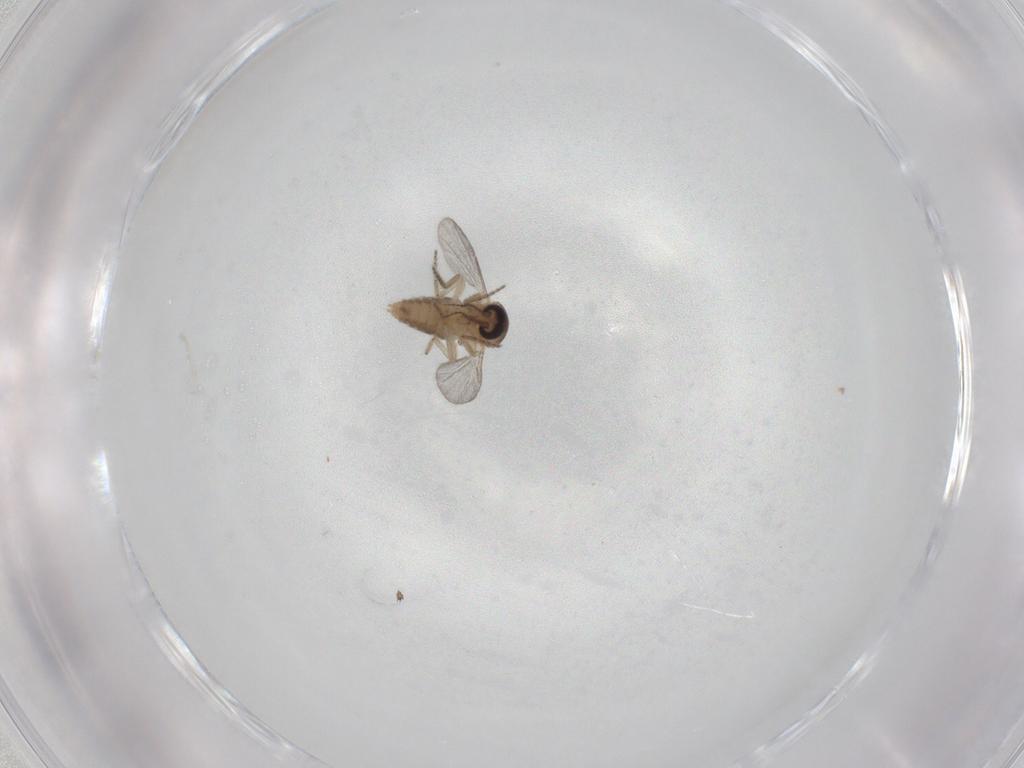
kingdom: Animalia
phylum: Arthropoda
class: Insecta
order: Diptera
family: Ceratopogonidae
